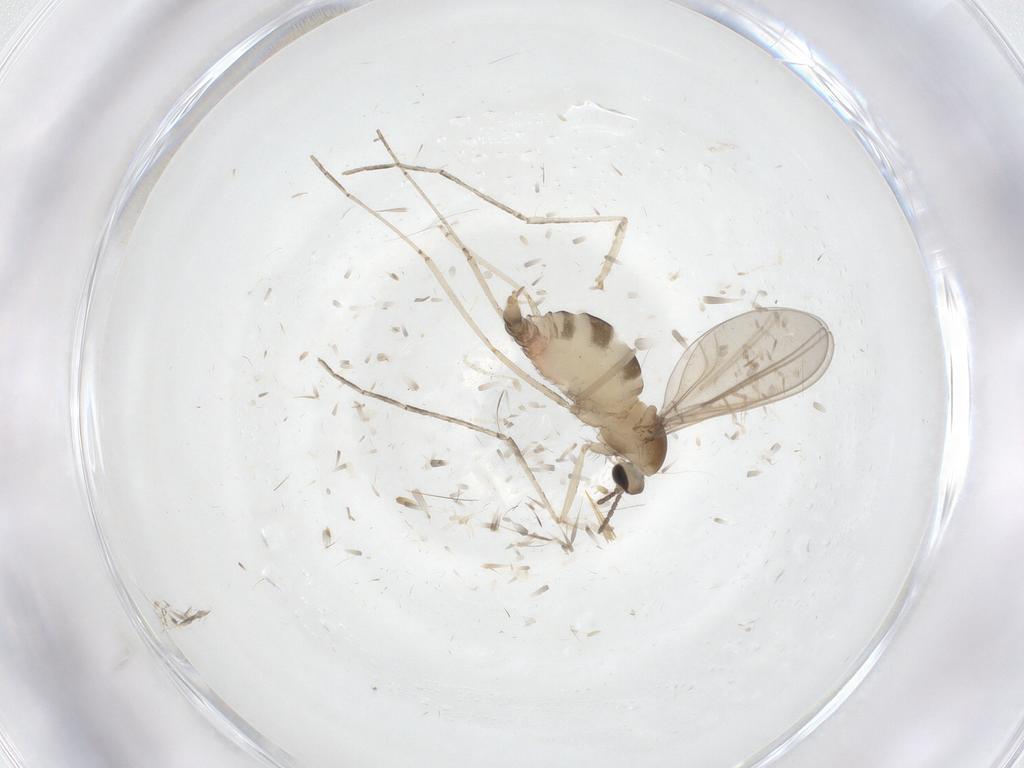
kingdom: Animalia
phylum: Arthropoda
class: Insecta
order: Diptera
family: Cecidomyiidae
